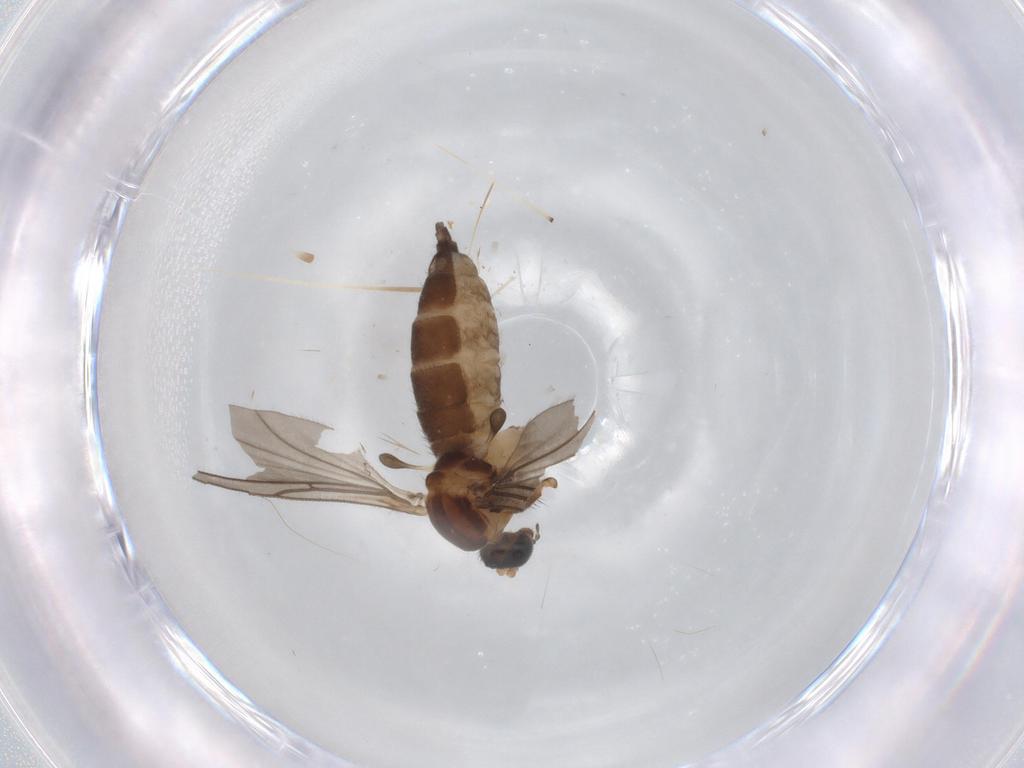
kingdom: Animalia
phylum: Arthropoda
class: Insecta
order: Diptera
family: Sciaridae
